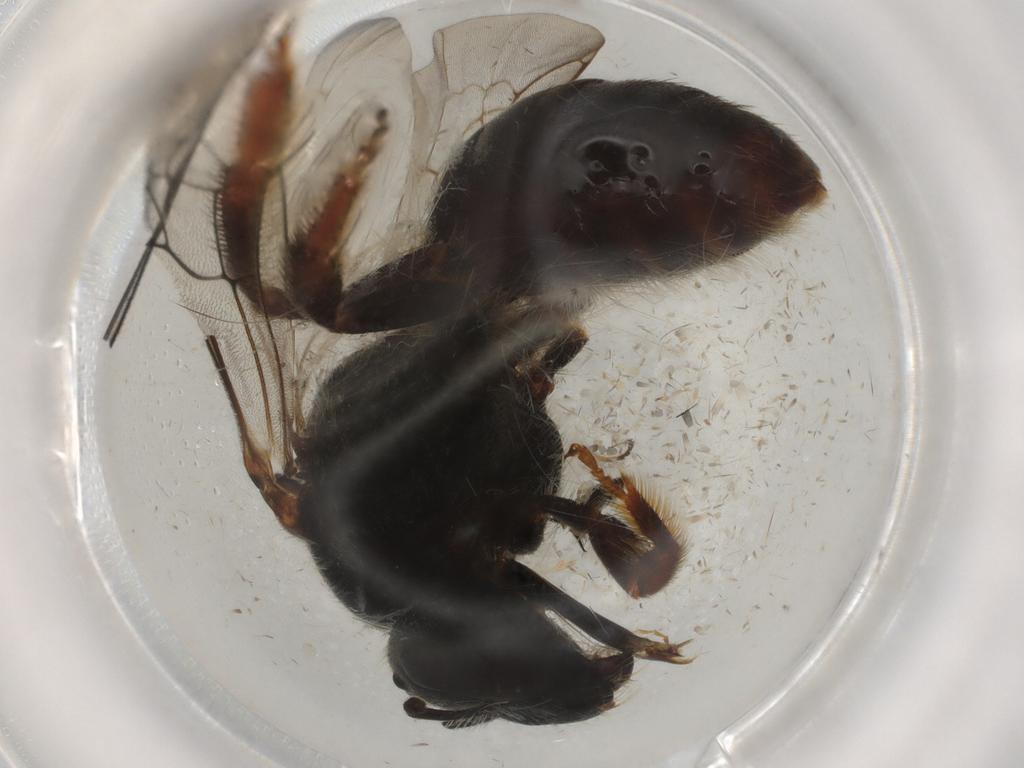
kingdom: Animalia
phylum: Arthropoda
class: Insecta
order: Hymenoptera
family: Halictidae
